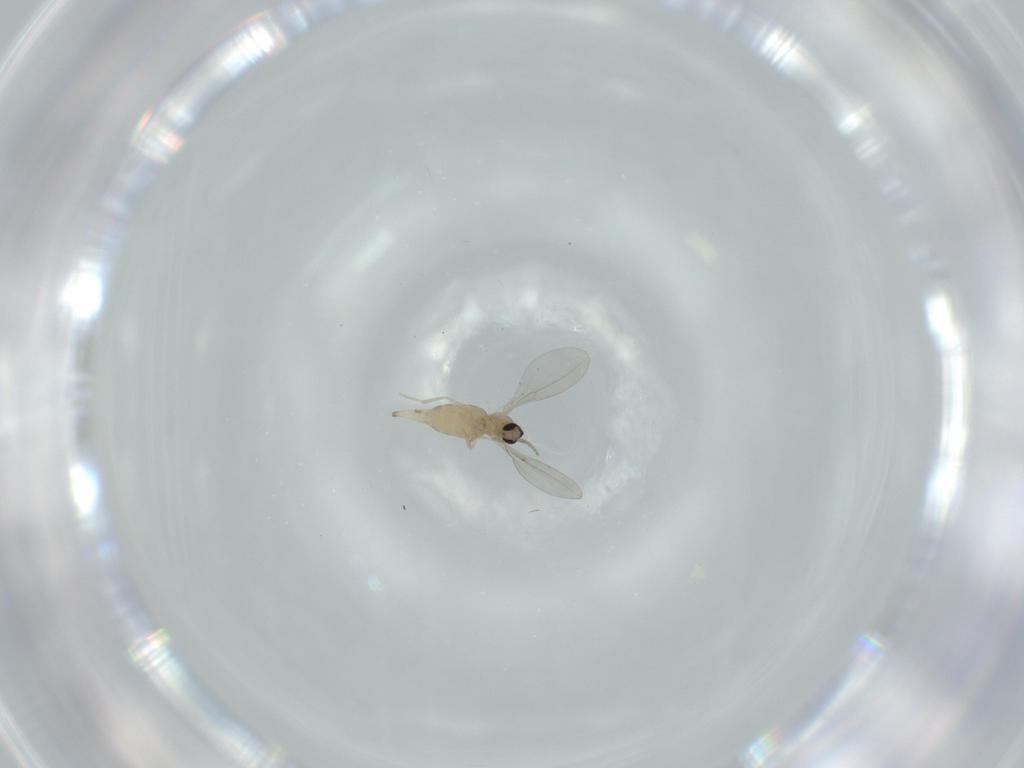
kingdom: Animalia
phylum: Arthropoda
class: Insecta
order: Diptera
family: Cecidomyiidae
